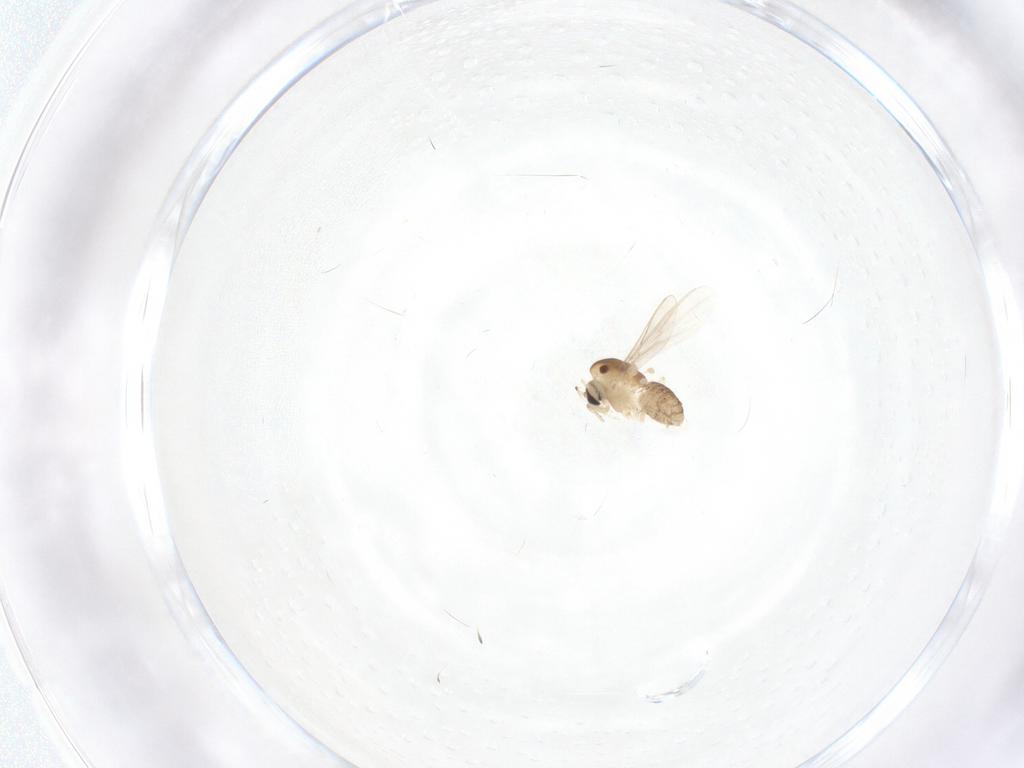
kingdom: Animalia
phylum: Arthropoda
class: Insecta
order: Diptera
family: Chironomidae
